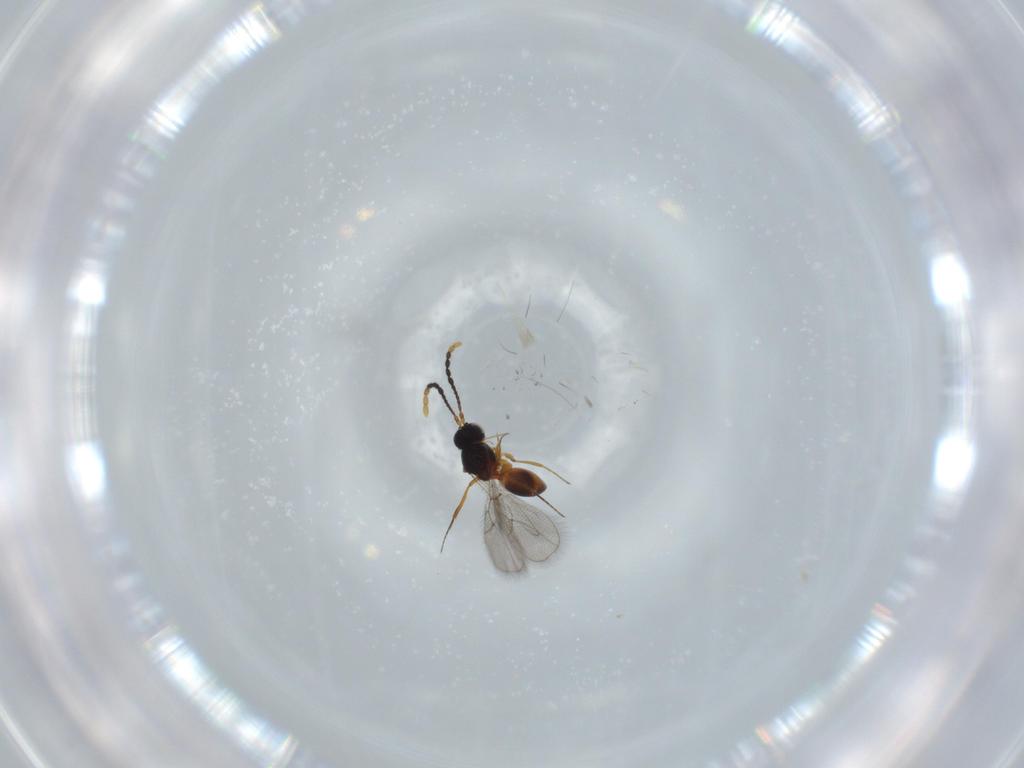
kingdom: Animalia
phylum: Arthropoda
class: Insecta
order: Hymenoptera
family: Figitidae
